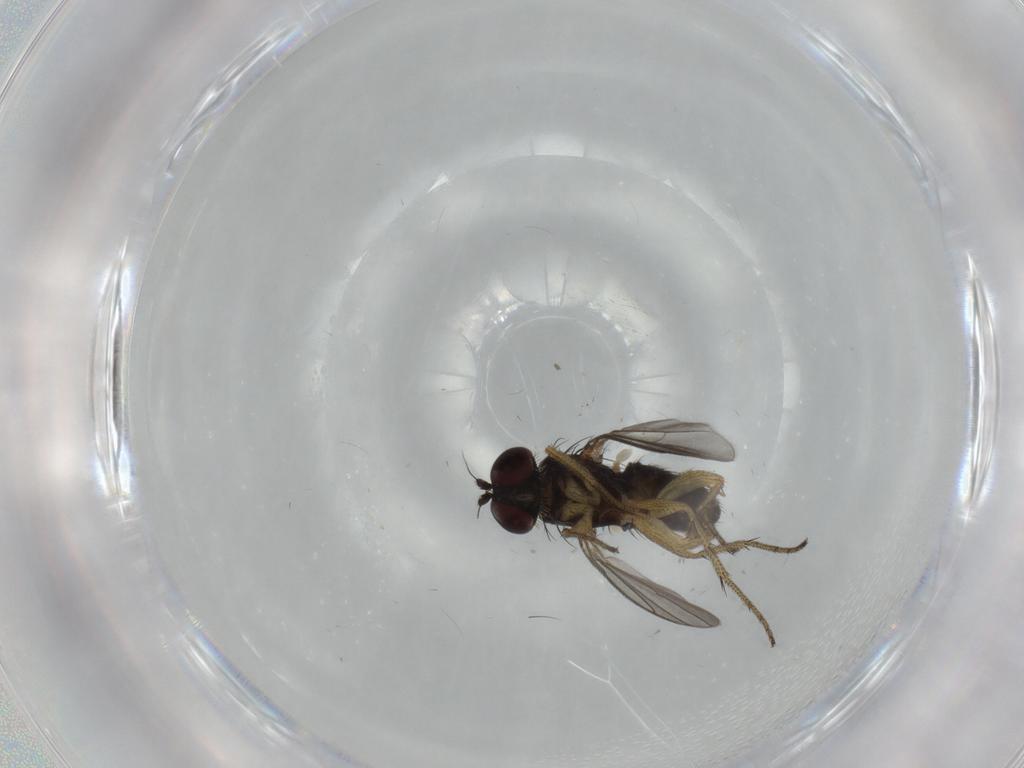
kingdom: Animalia
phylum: Arthropoda
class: Insecta
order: Diptera
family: Dolichopodidae
